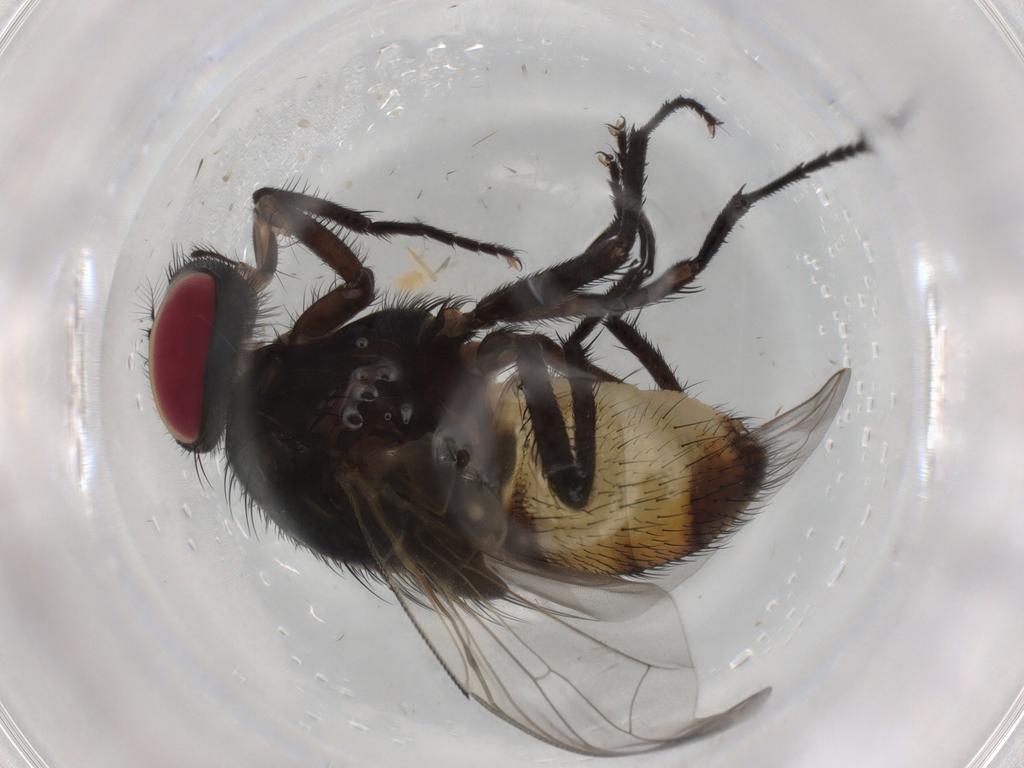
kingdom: Animalia
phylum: Arthropoda
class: Insecta
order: Diptera
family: Muscidae
